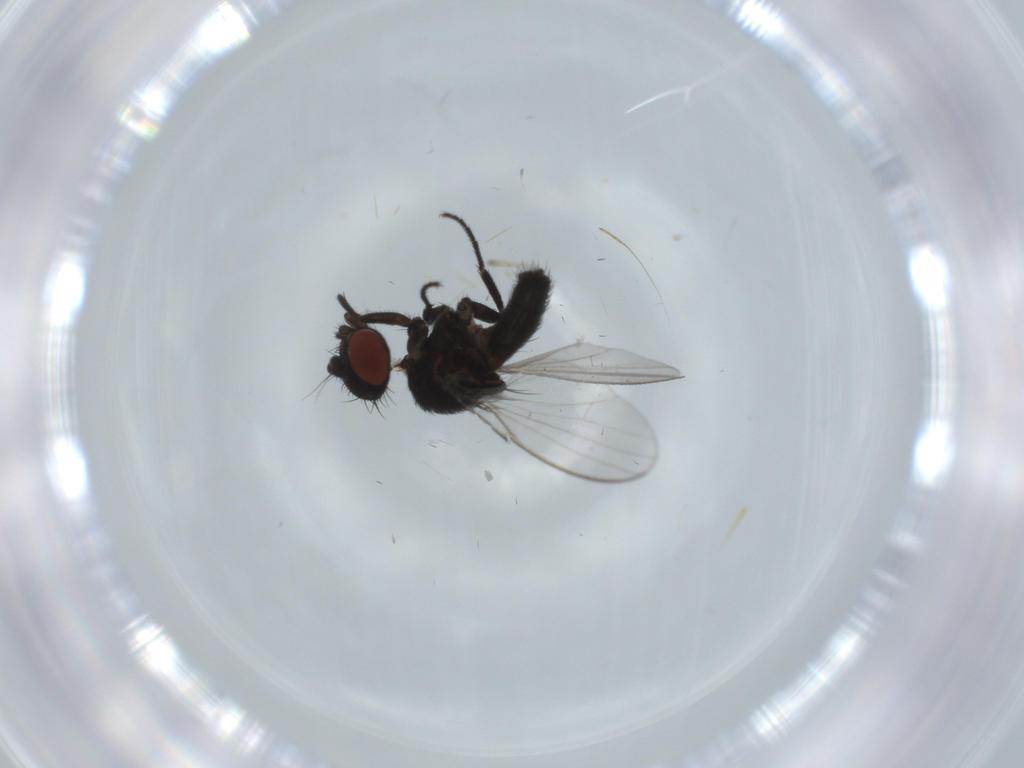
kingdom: Animalia
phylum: Arthropoda
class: Insecta
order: Diptera
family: Milichiidae
